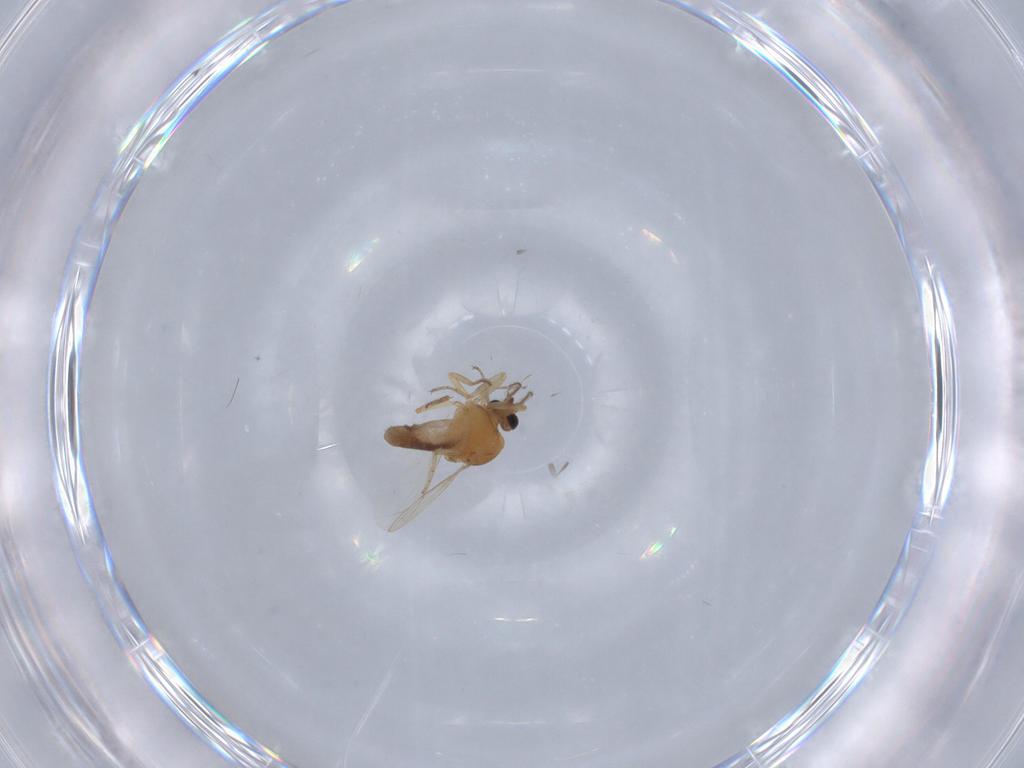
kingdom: Animalia
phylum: Arthropoda
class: Insecta
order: Diptera
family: Ceratopogonidae
